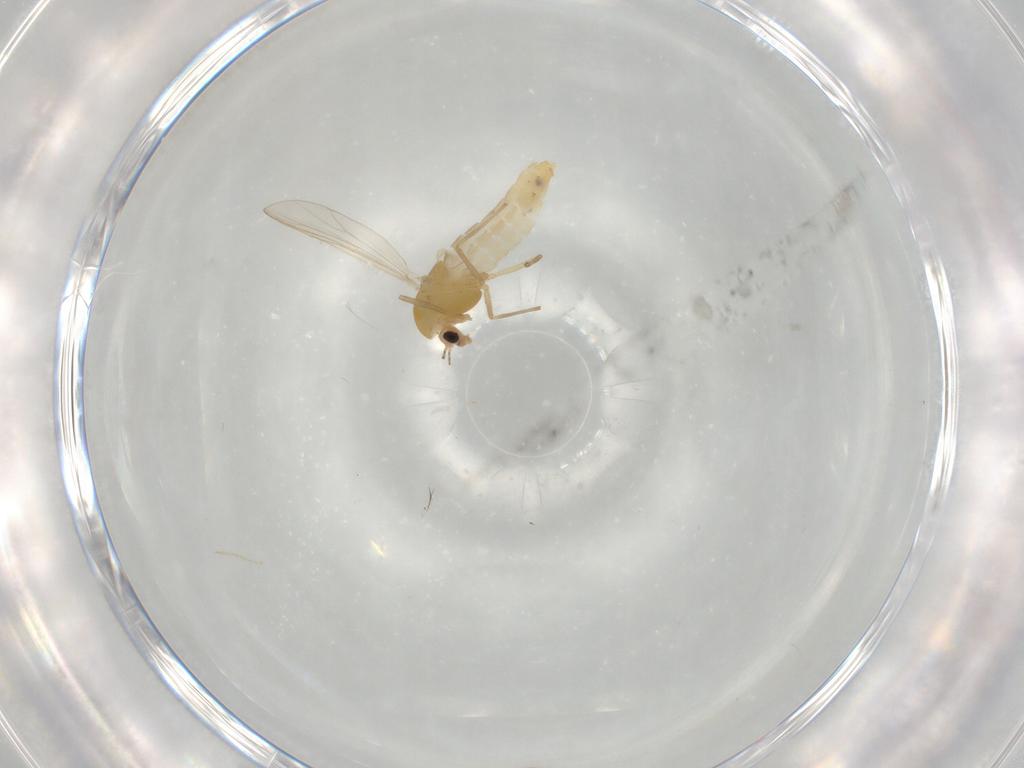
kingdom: Animalia
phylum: Arthropoda
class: Insecta
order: Diptera
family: Sciaridae
